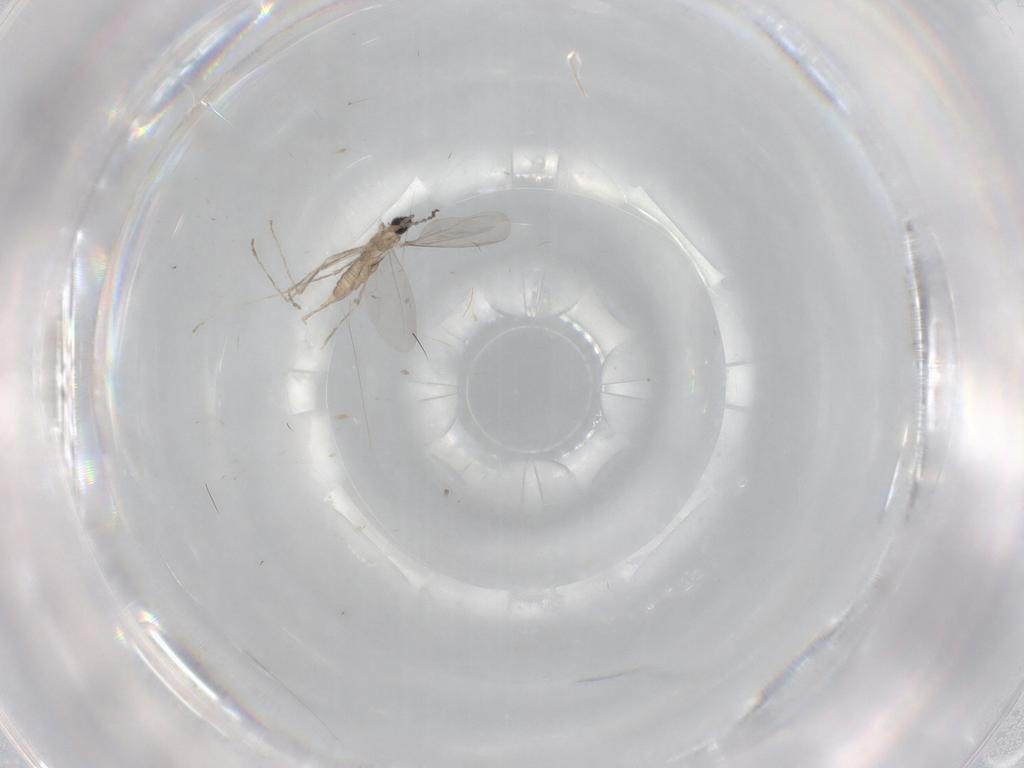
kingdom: Animalia
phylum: Arthropoda
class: Insecta
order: Diptera
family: Cecidomyiidae
